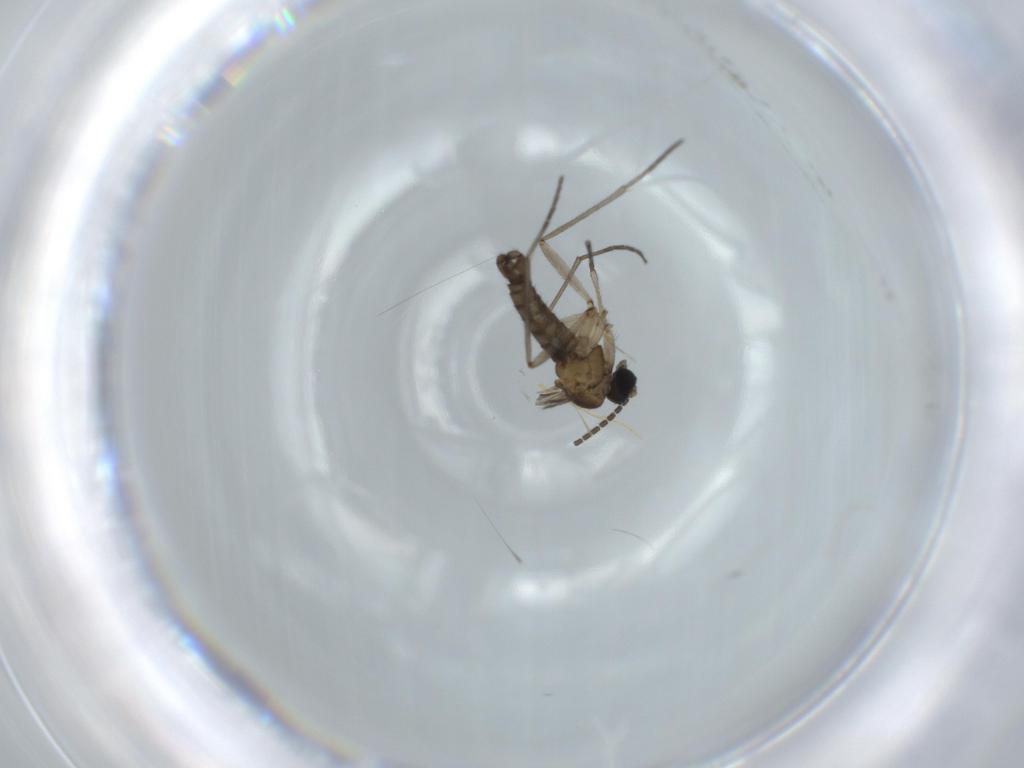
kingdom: Animalia
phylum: Arthropoda
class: Insecta
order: Diptera
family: Sciaridae
